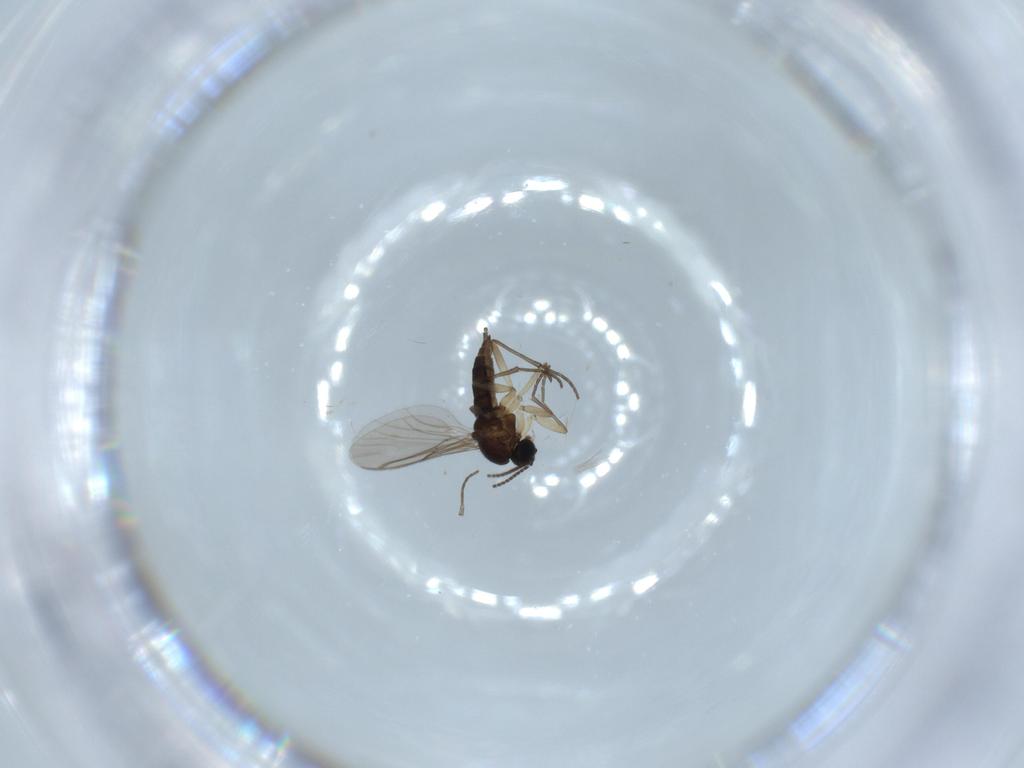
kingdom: Animalia
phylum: Arthropoda
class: Insecta
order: Diptera
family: Sciaridae
